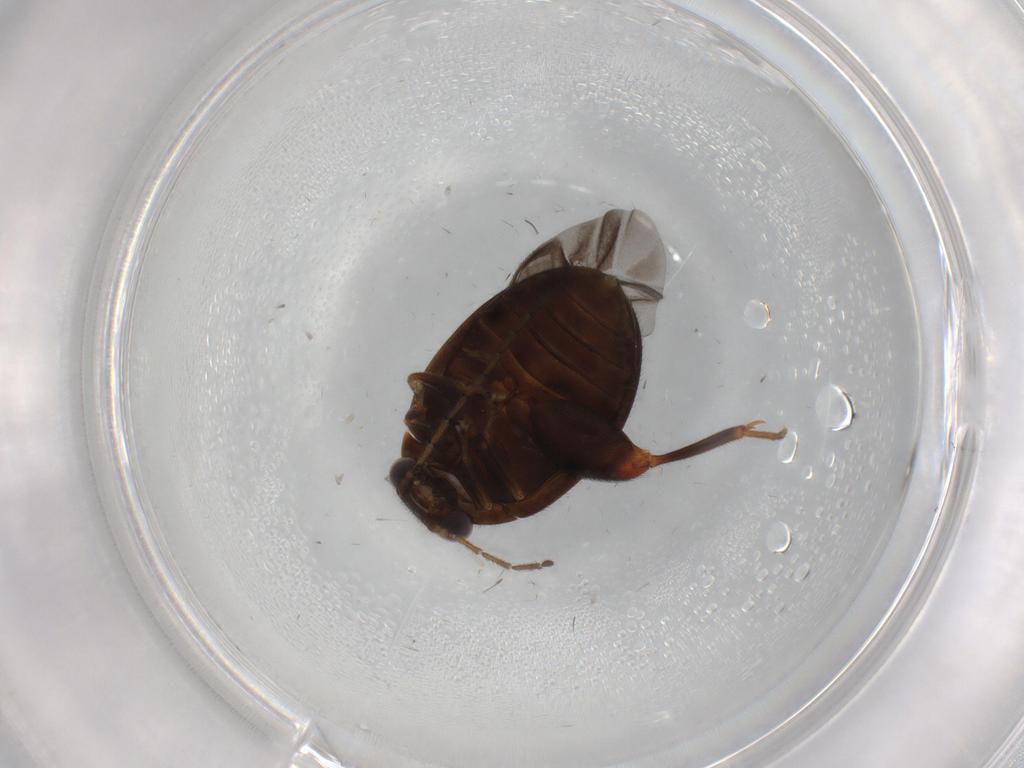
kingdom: Animalia
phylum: Arthropoda
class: Insecta
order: Coleoptera
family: Scirtidae
